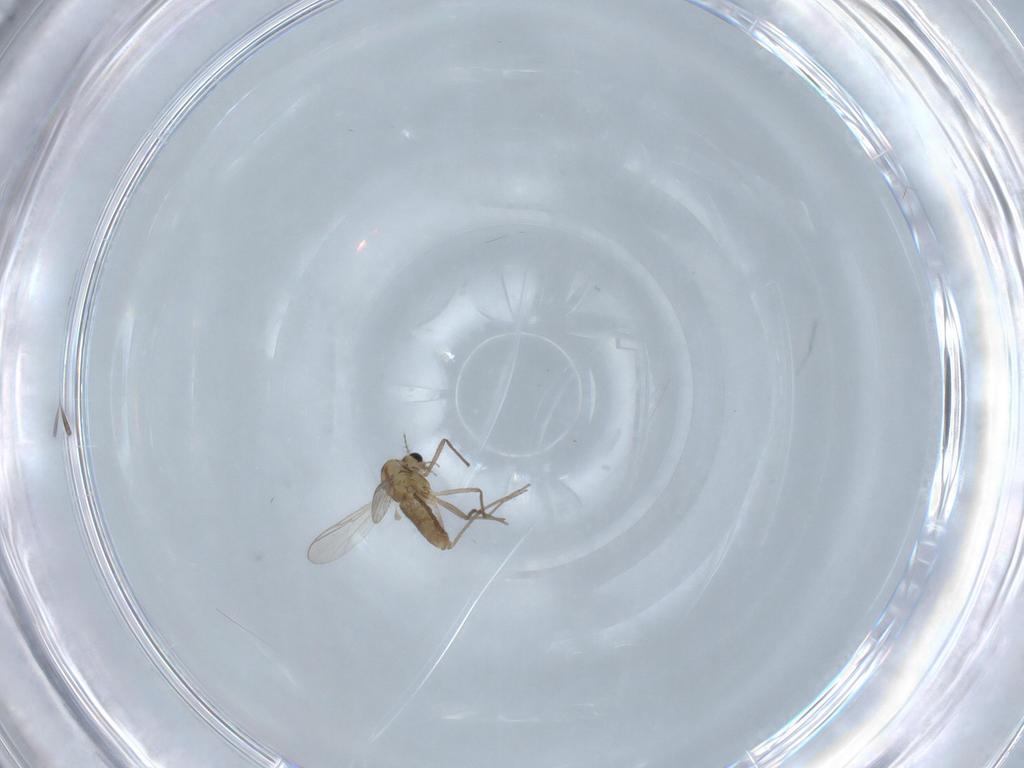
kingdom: Animalia
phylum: Arthropoda
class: Insecta
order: Diptera
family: Chironomidae
